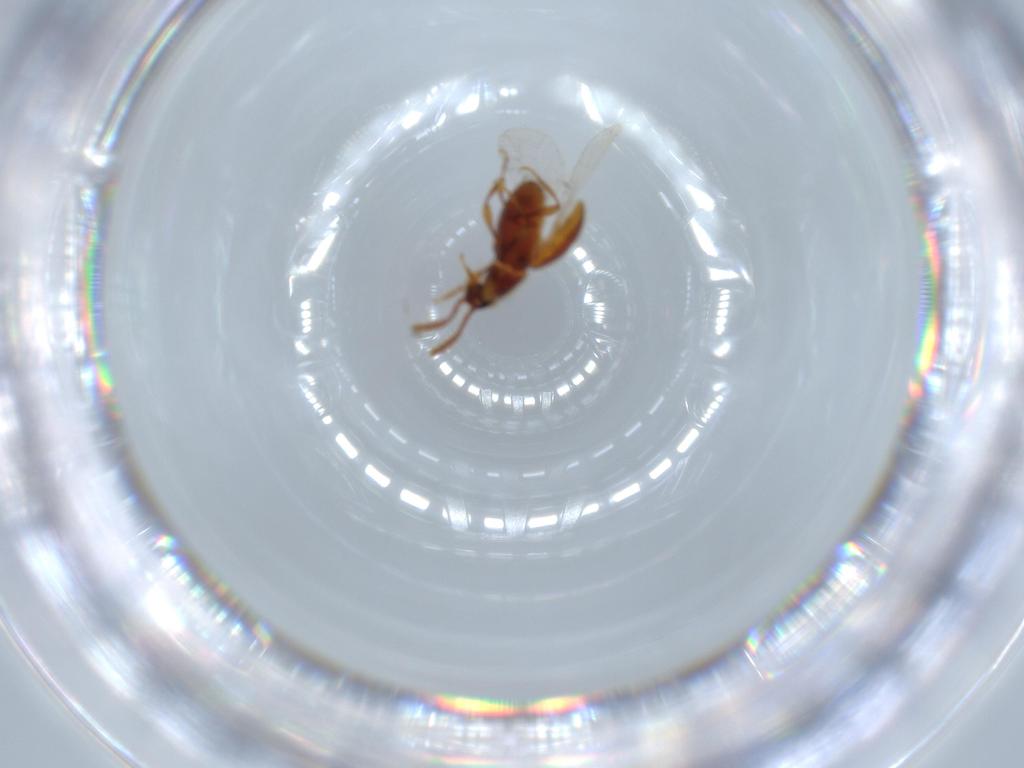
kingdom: Animalia
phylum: Arthropoda
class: Insecta
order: Coleoptera
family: Staphylinidae
